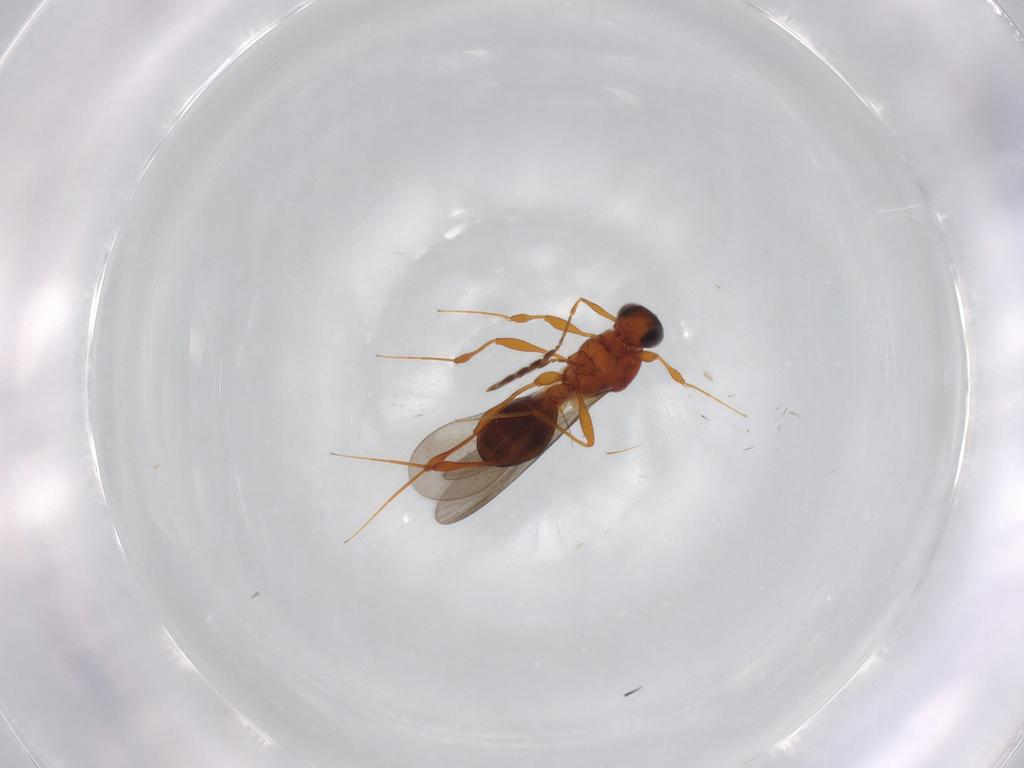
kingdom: Animalia
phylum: Arthropoda
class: Insecta
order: Hymenoptera
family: Platygastridae
